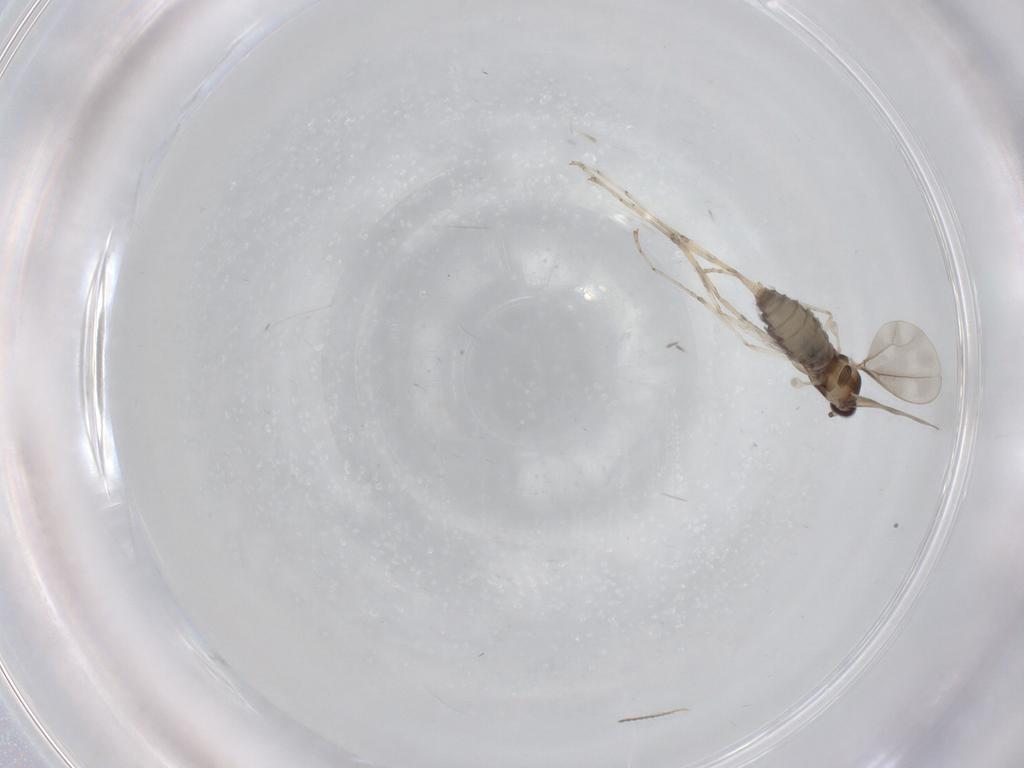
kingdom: Animalia
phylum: Arthropoda
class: Insecta
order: Diptera
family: Cecidomyiidae
